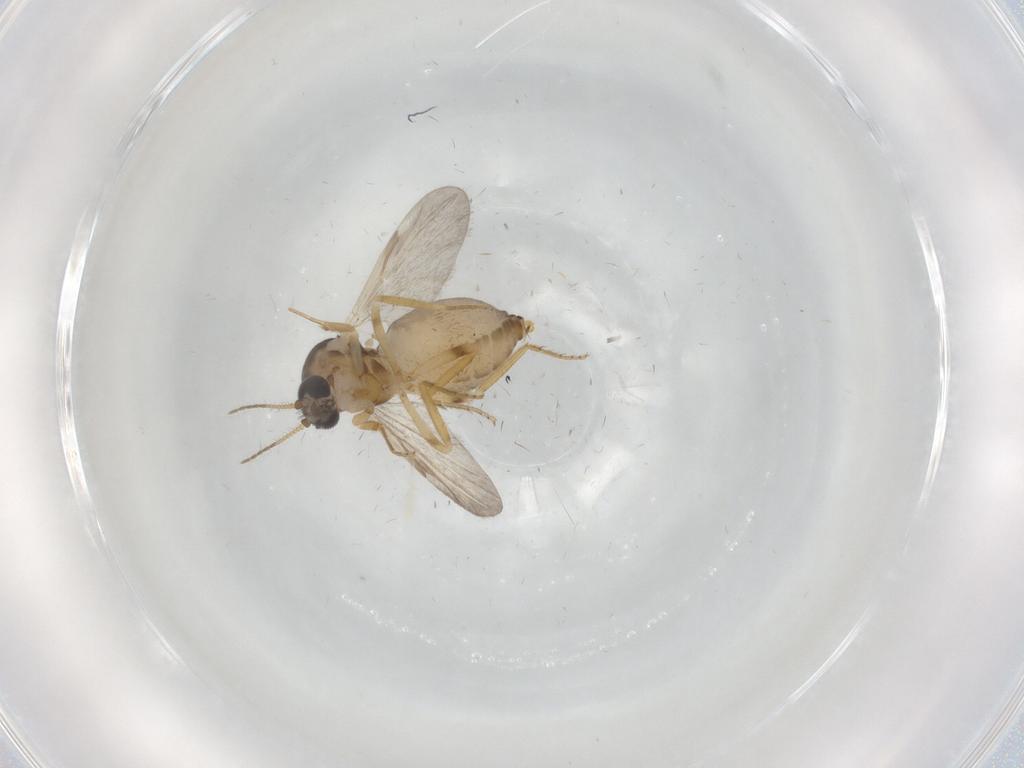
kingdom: Animalia
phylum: Arthropoda
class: Insecta
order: Diptera
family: Ceratopogonidae
